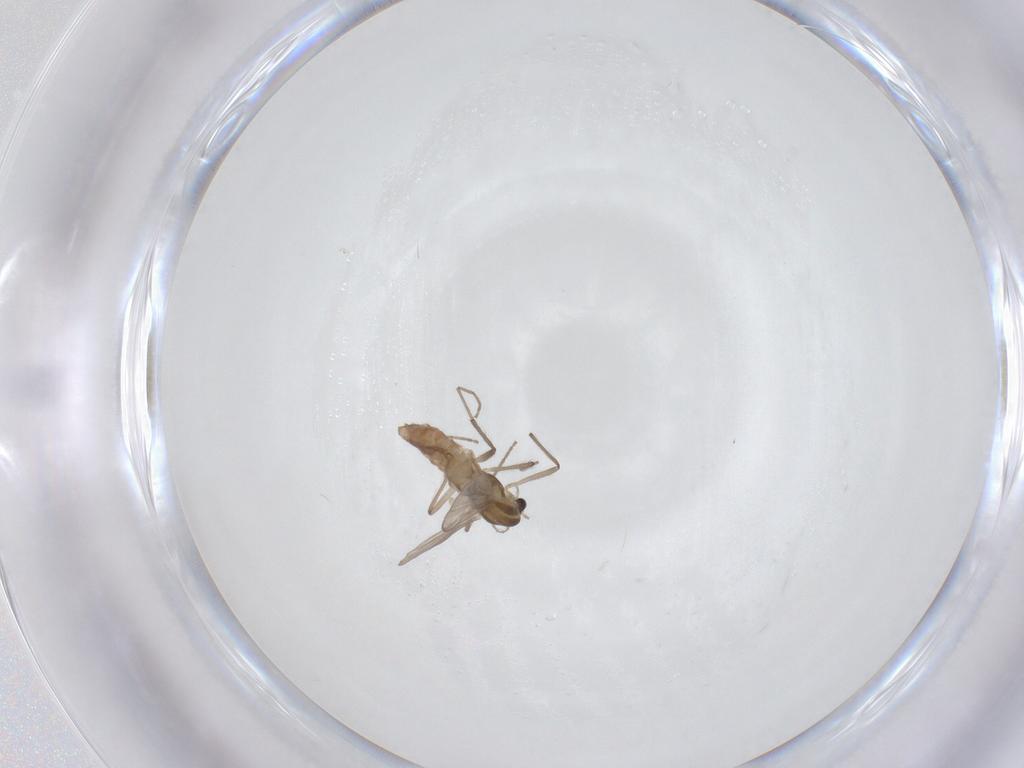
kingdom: Animalia
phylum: Arthropoda
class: Insecta
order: Diptera
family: Chironomidae
